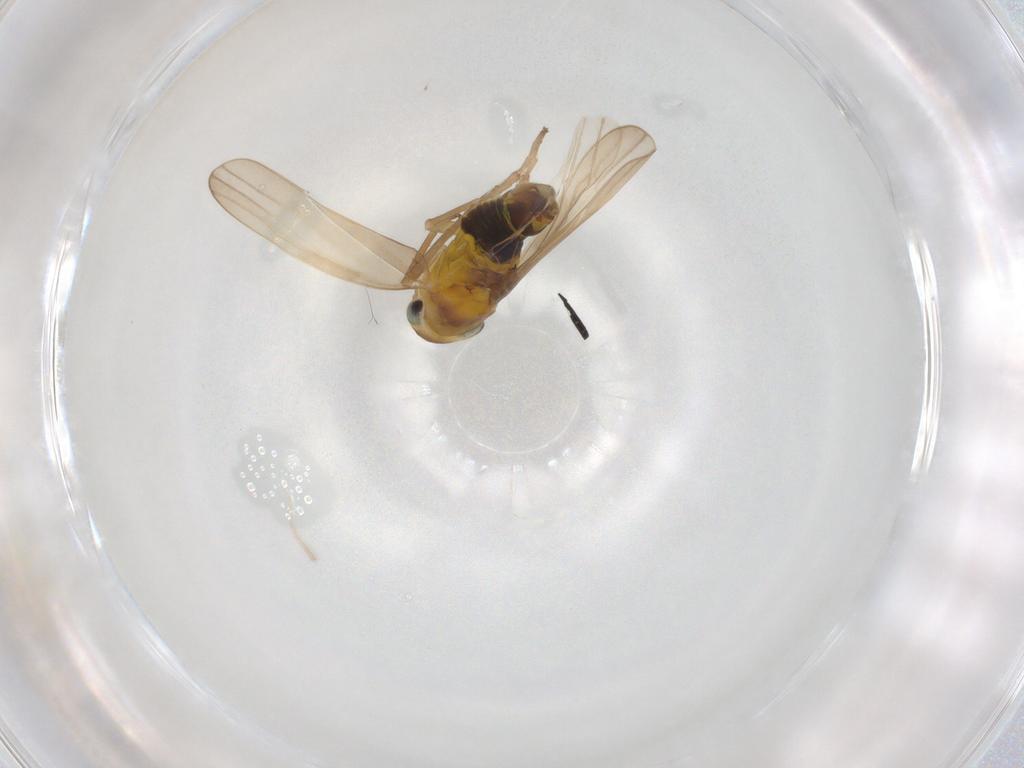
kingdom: Animalia
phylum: Arthropoda
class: Insecta
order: Hemiptera
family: Cicadellidae
